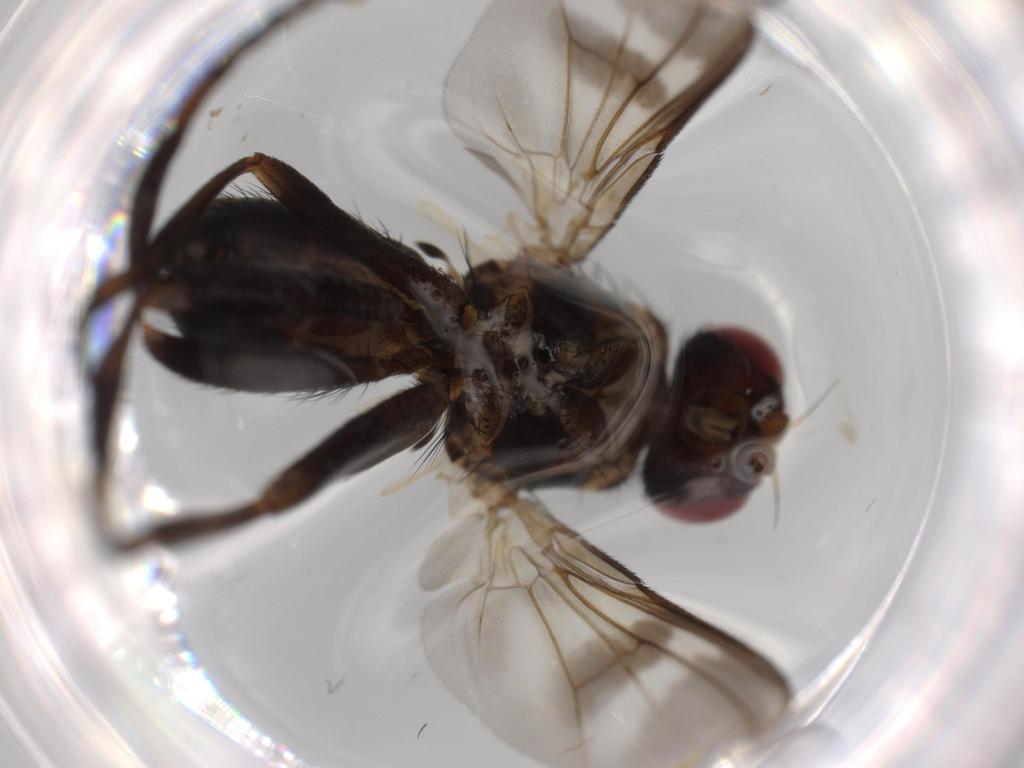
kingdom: Animalia
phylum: Arthropoda
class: Insecta
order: Diptera
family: Calliphoridae
